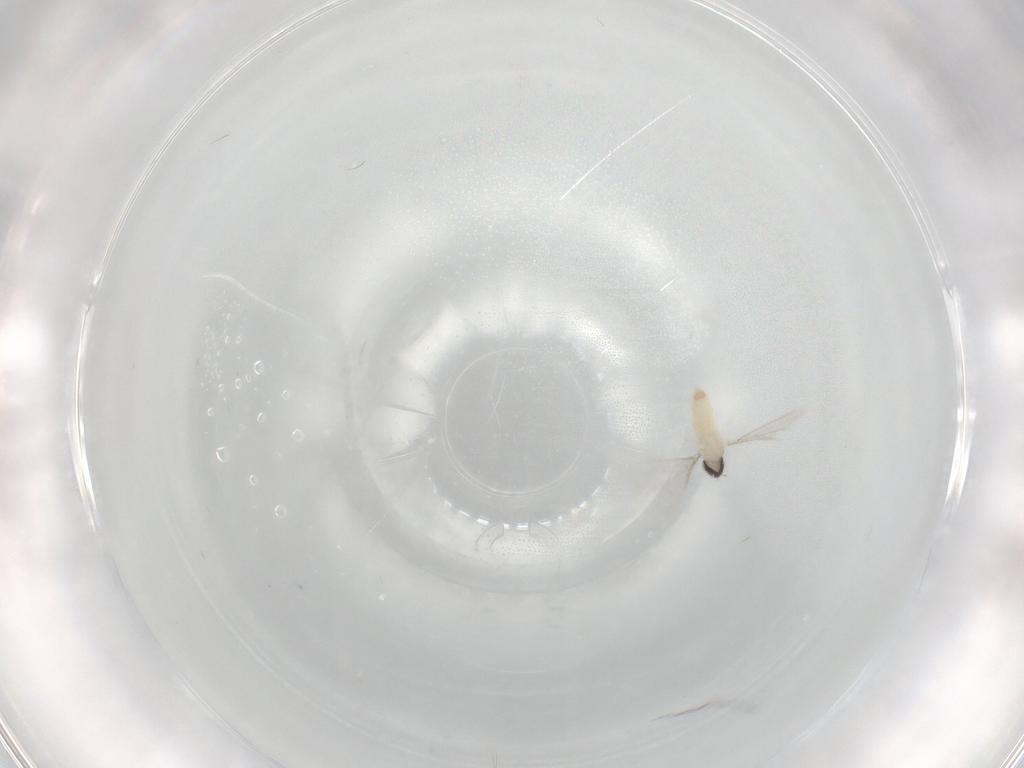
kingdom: Animalia
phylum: Arthropoda
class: Insecta
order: Diptera
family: Cecidomyiidae
